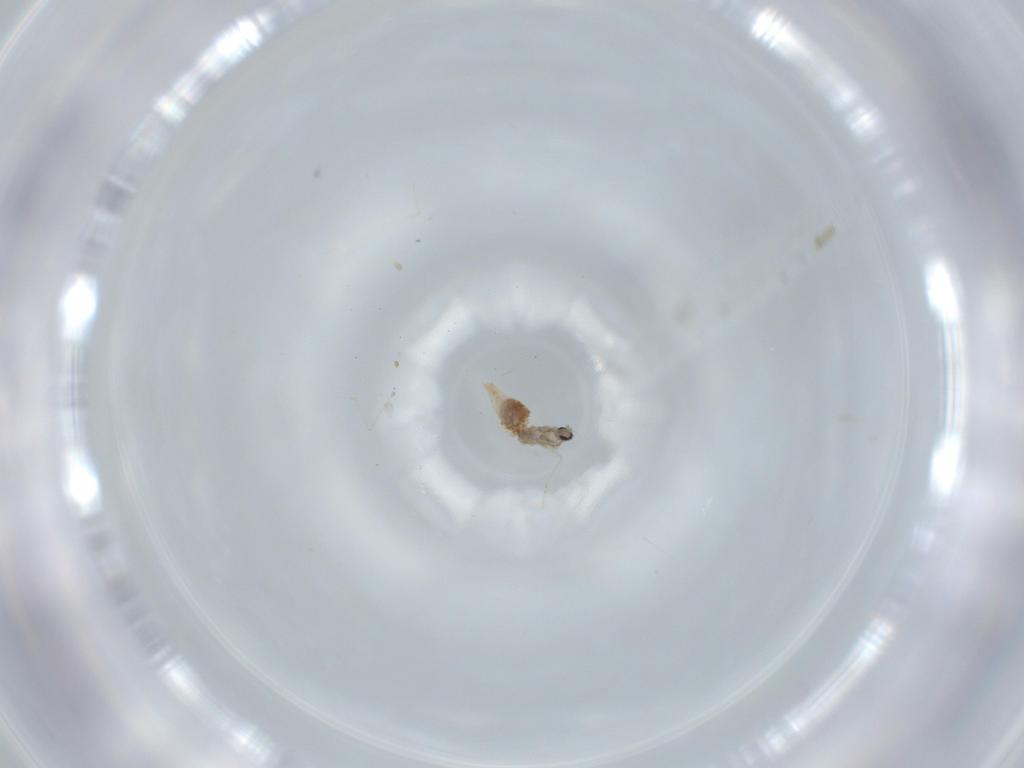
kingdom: Animalia
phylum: Arthropoda
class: Insecta
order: Diptera
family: Cecidomyiidae
